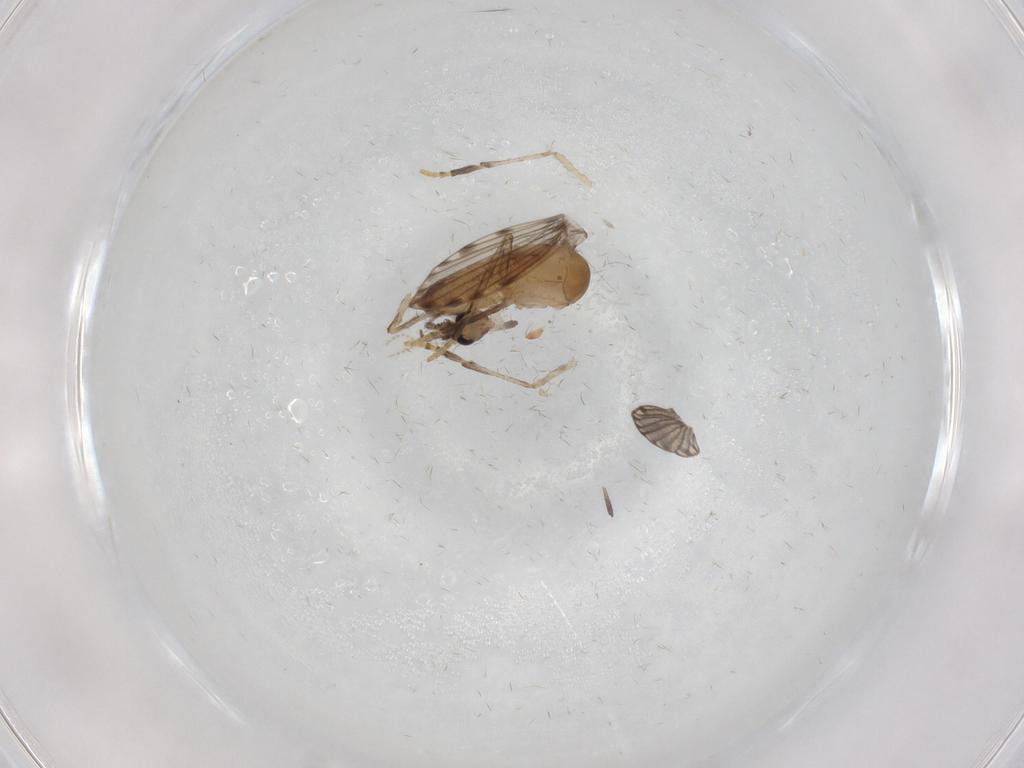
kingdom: Animalia
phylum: Arthropoda
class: Insecta
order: Diptera
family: Psychodidae
